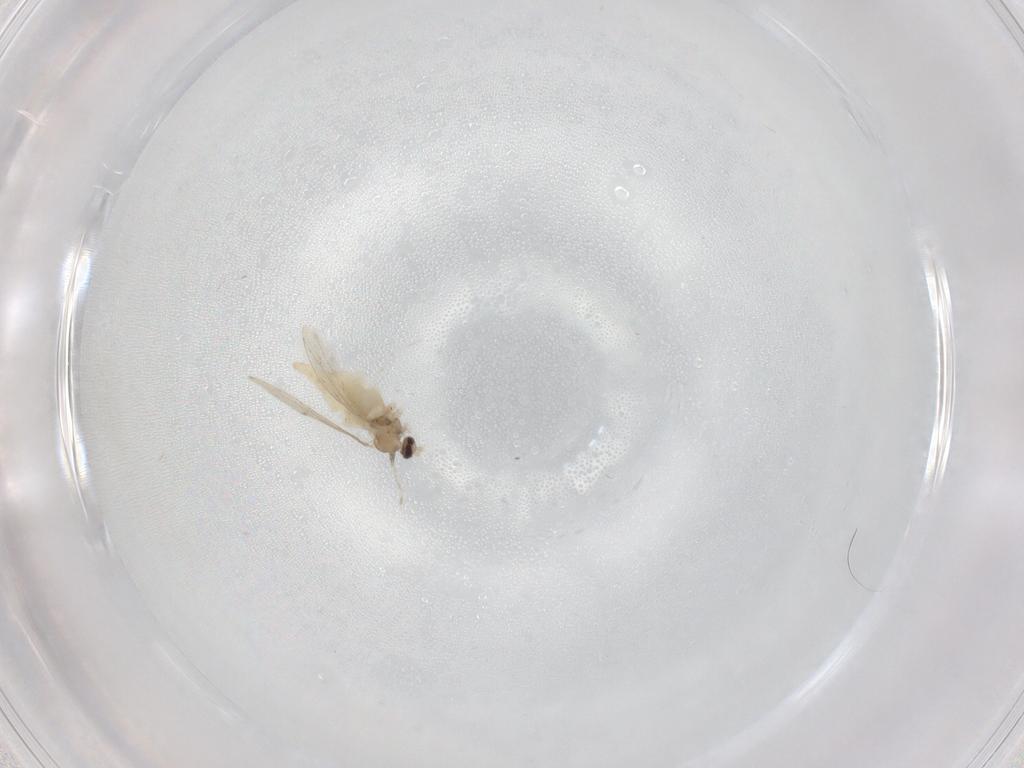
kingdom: Animalia
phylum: Arthropoda
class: Insecta
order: Diptera
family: Cecidomyiidae
